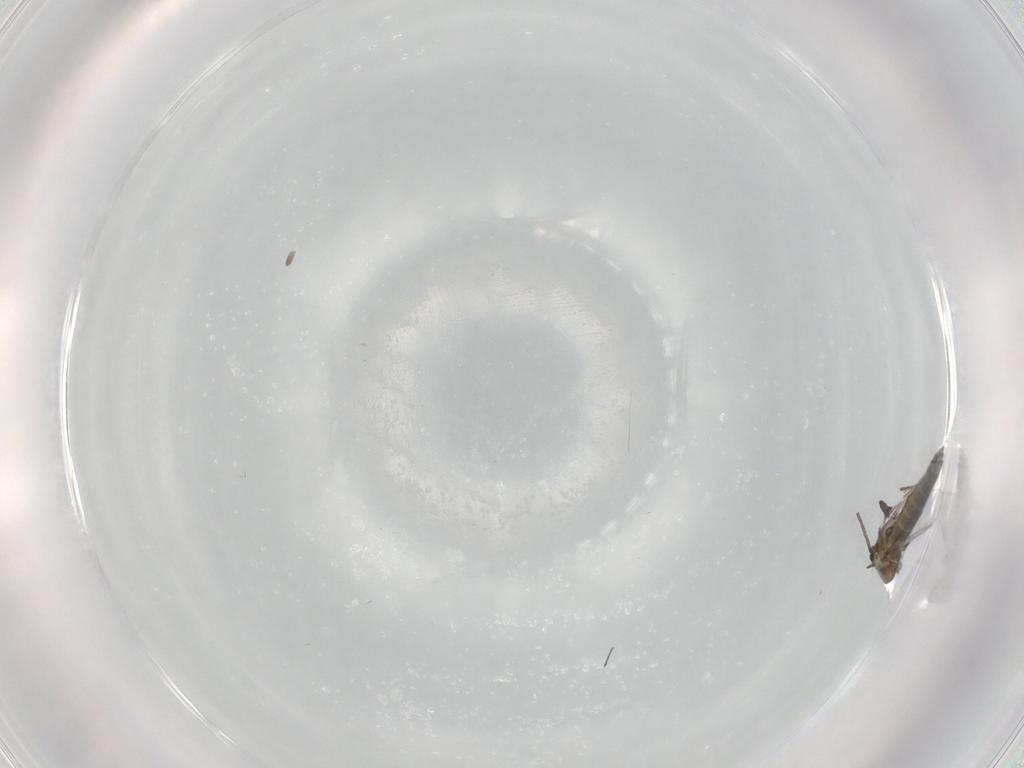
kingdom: Animalia
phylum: Arthropoda
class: Insecta
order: Diptera
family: Chironomidae
